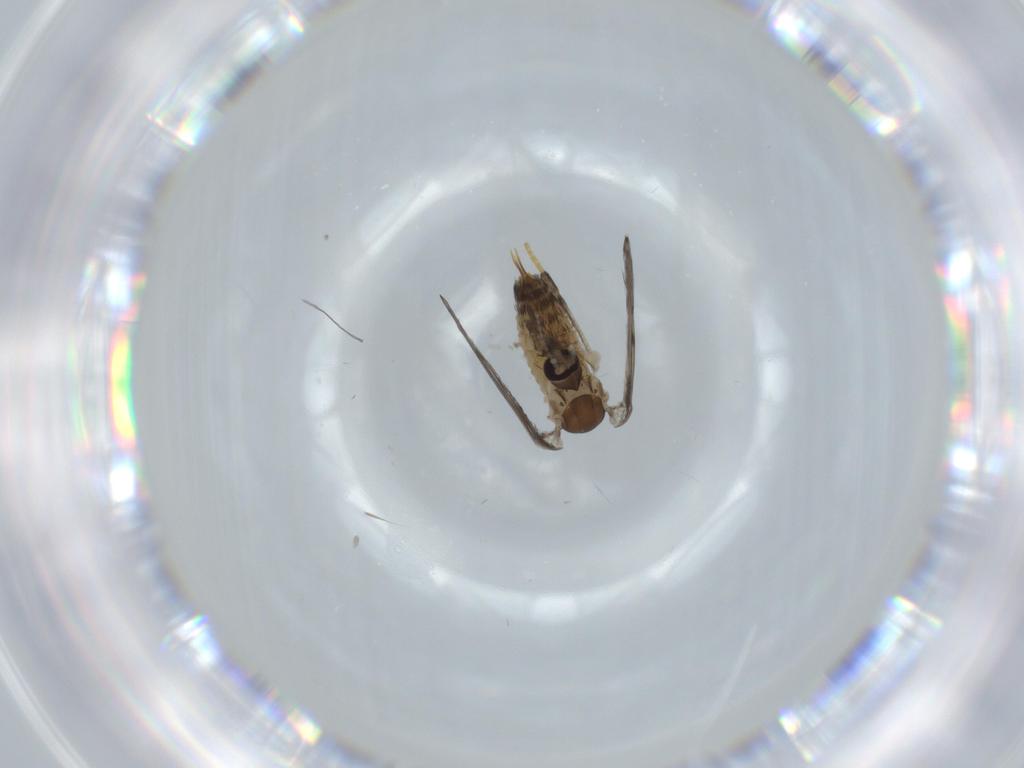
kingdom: Animalia
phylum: Arthropoda
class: Insecta
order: Diptera
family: Psychodidae
